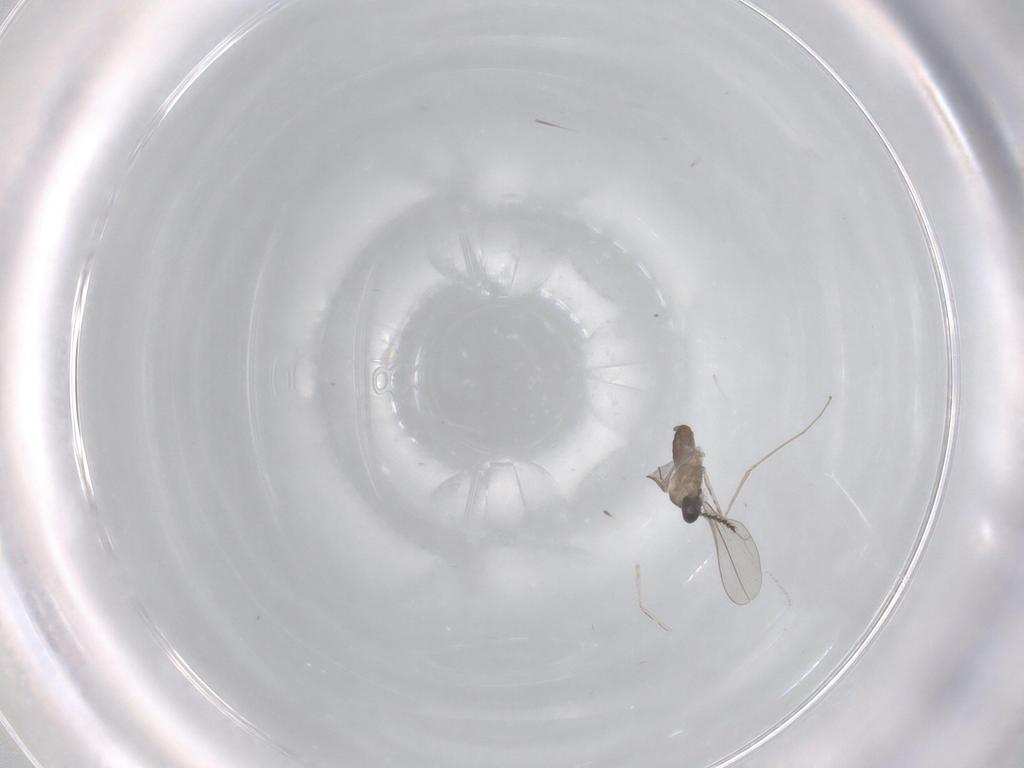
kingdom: Animalia
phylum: Arthropoda
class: Insecta
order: Diptera
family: Cecidomyiidae
